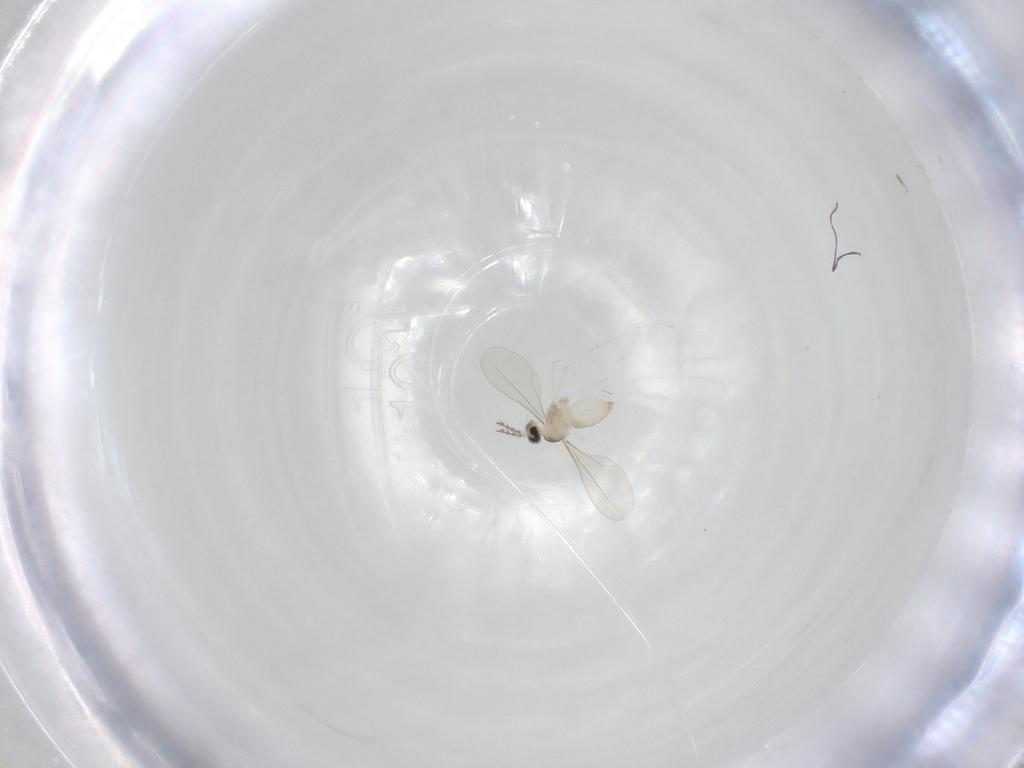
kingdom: Animalia
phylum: Arthropoda
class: Insecta
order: Diptera
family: Cecidomyiidae
